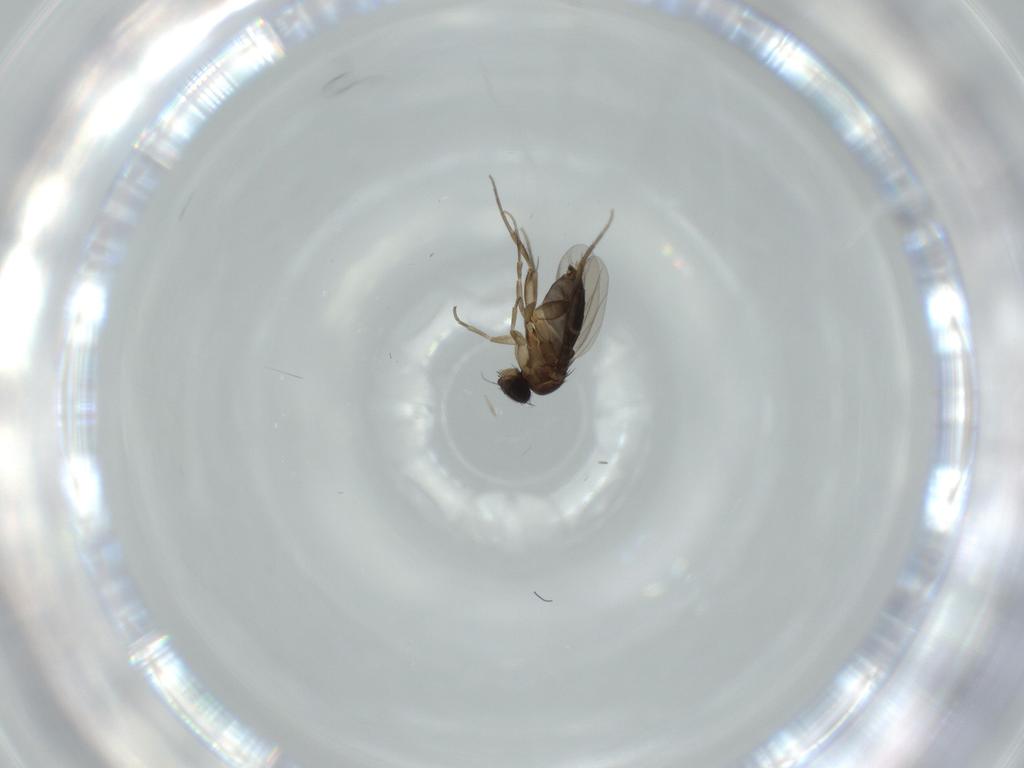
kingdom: Animalia
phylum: Arthropoda
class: Insecta
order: Diptera
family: Phoridae
